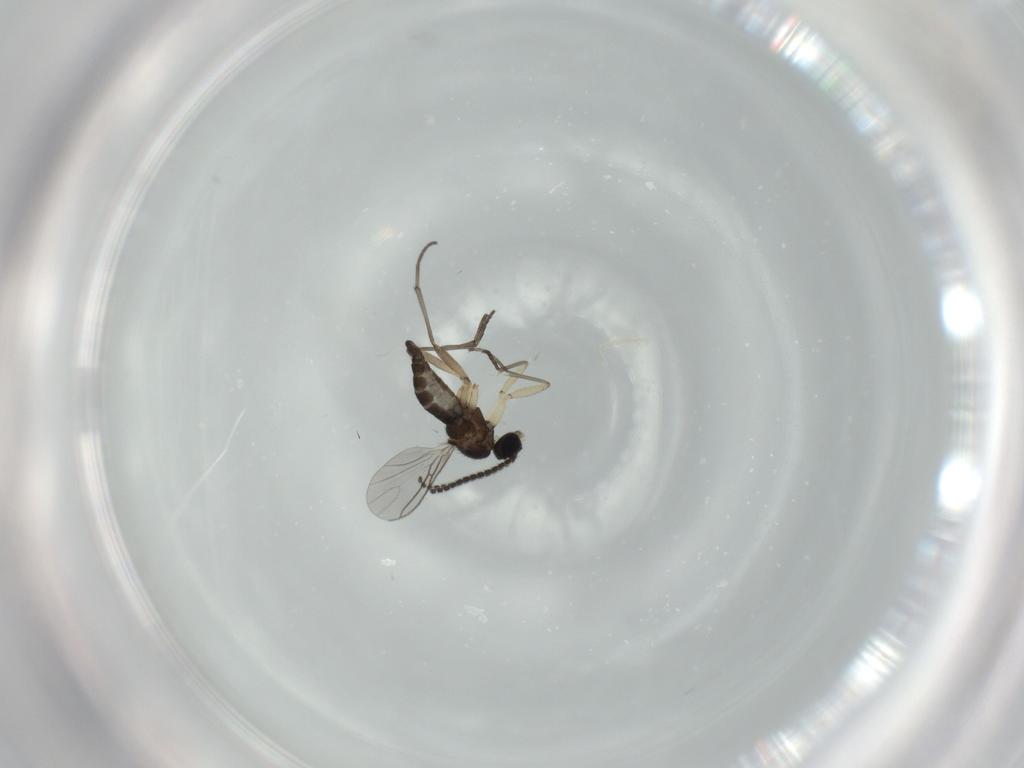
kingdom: Animalia
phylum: Arthropoda
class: Insecta
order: Diptera
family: Sciaridae
